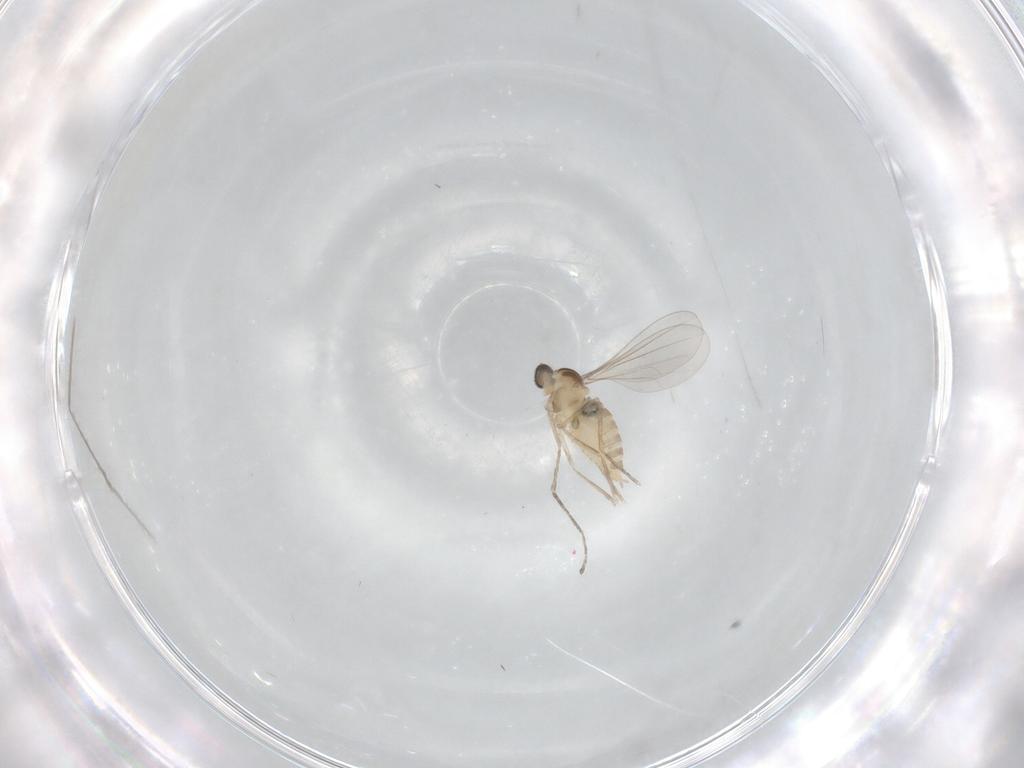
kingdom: Animalia
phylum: Arthropoda
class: Insecta
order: Diptera
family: Cecidomyiidae
